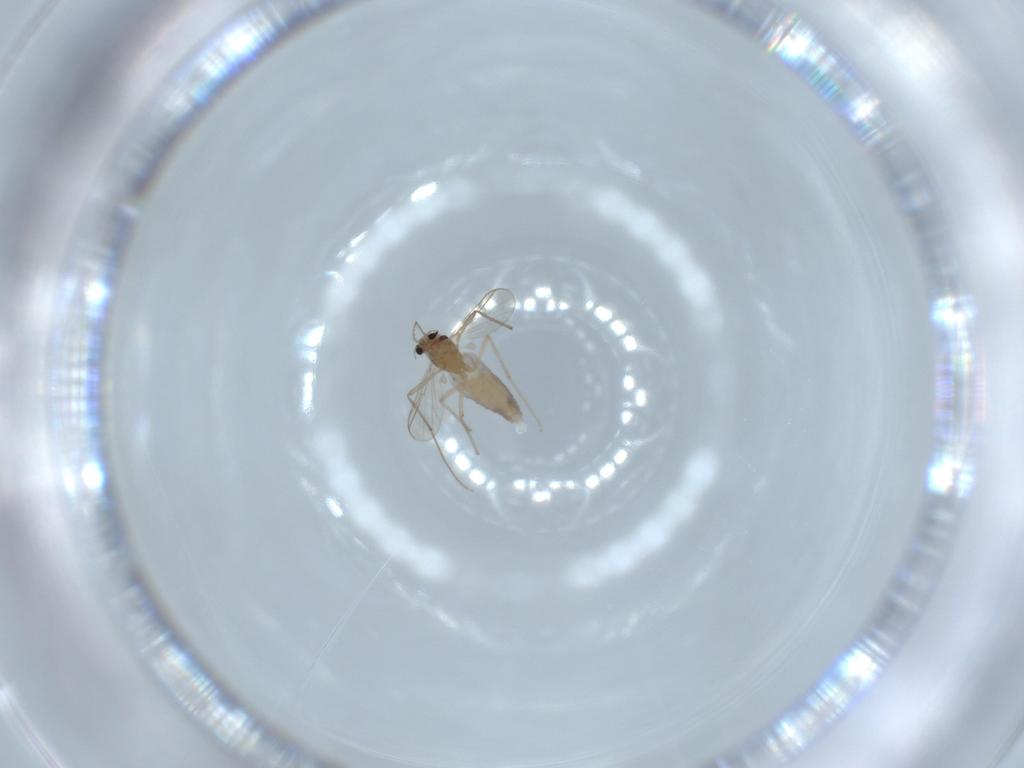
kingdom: Animalia
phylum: Arthropoda
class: Insecta
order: Diptera
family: Chironomidae
